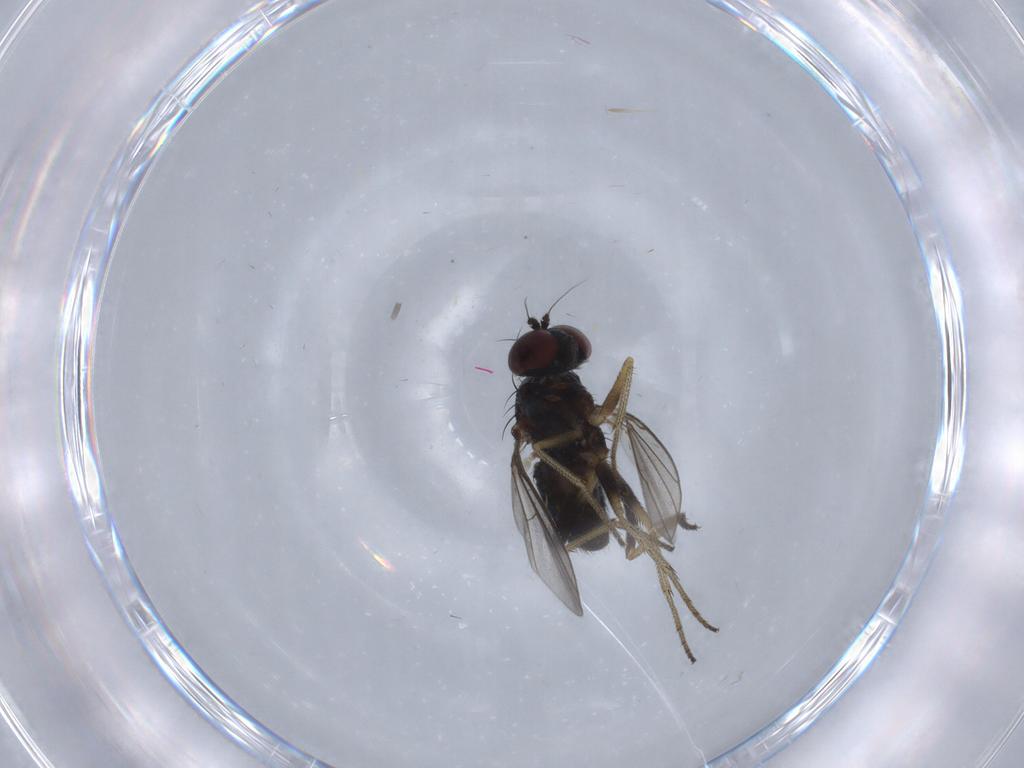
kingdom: Animalia
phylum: Arthropoda
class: Insecta
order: Diptera
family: Dolichopodidae
